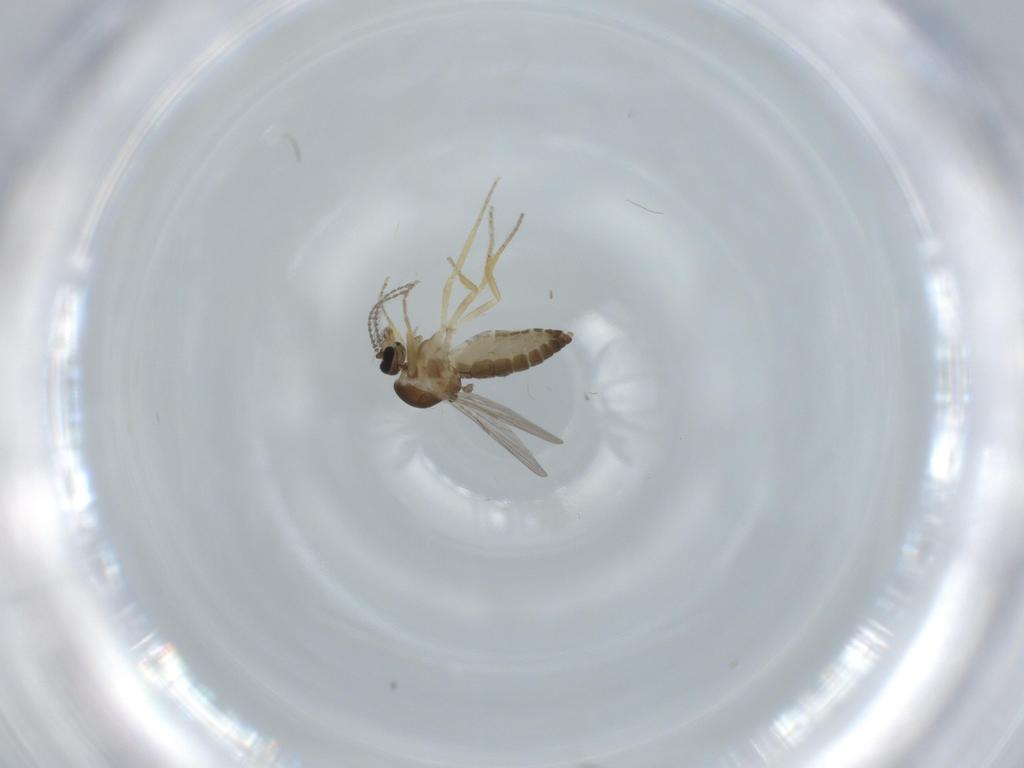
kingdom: Animalia
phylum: Arthropoda
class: Insecta
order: Diptera
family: Ceratopogonidae
